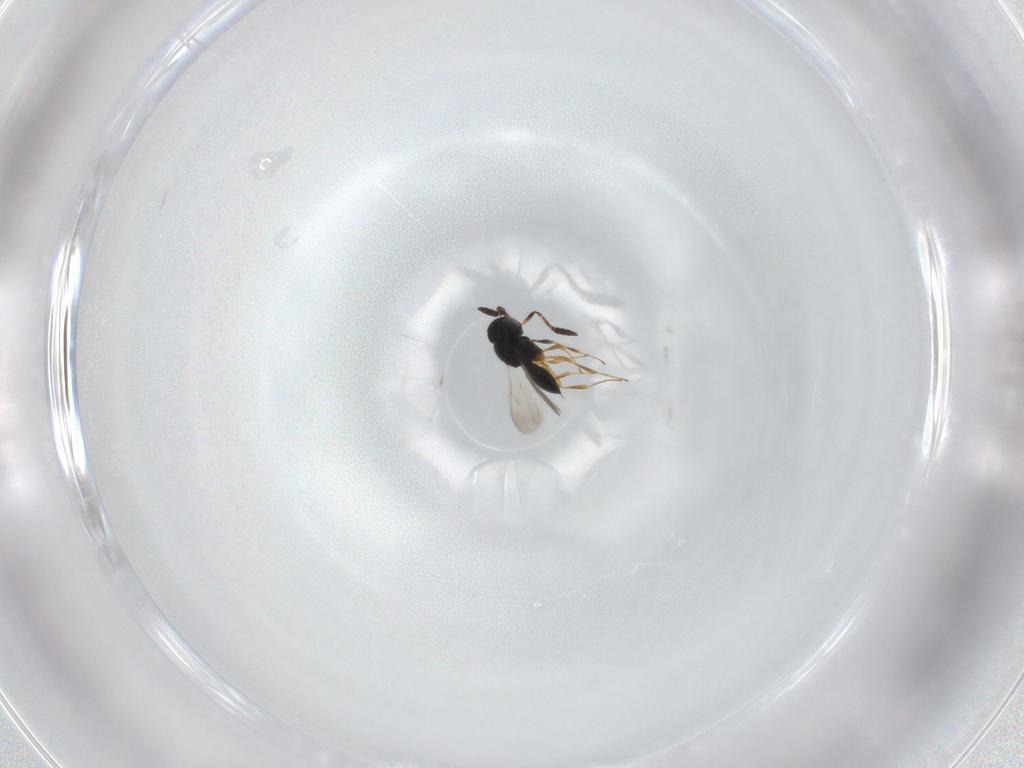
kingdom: Animalia
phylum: Arthropoda
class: Insecta
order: Hymenoptera
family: Scelionidae
